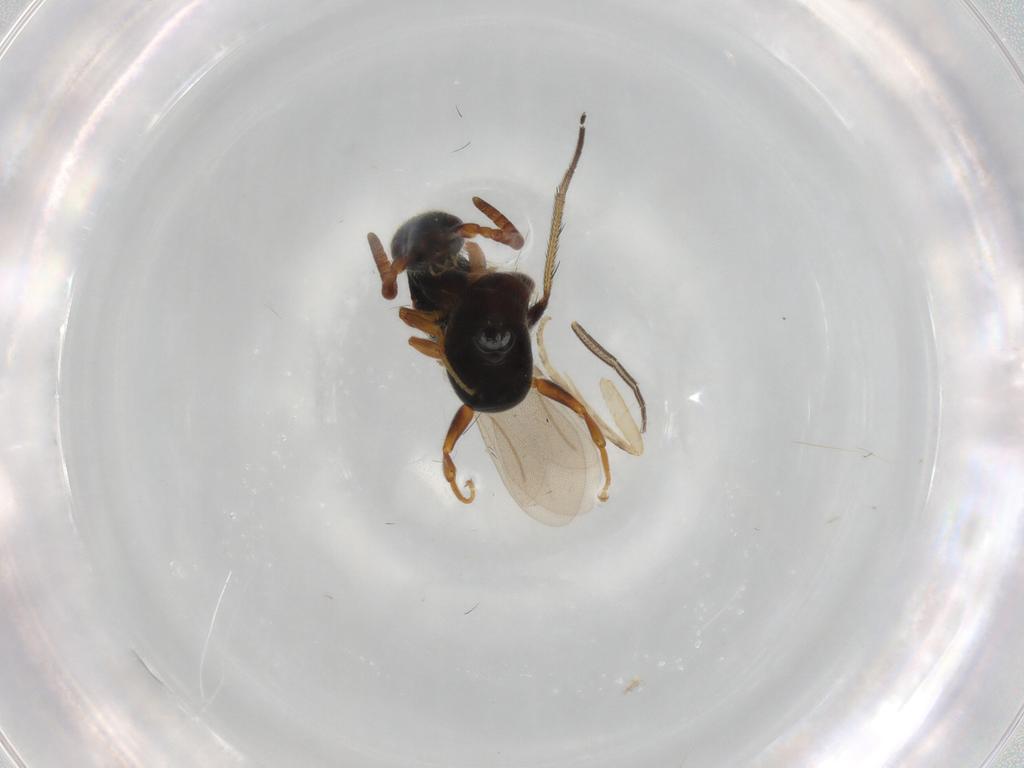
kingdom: Animalia
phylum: Arthropoda
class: Insecta
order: Hymenoptera
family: Bethylidae
